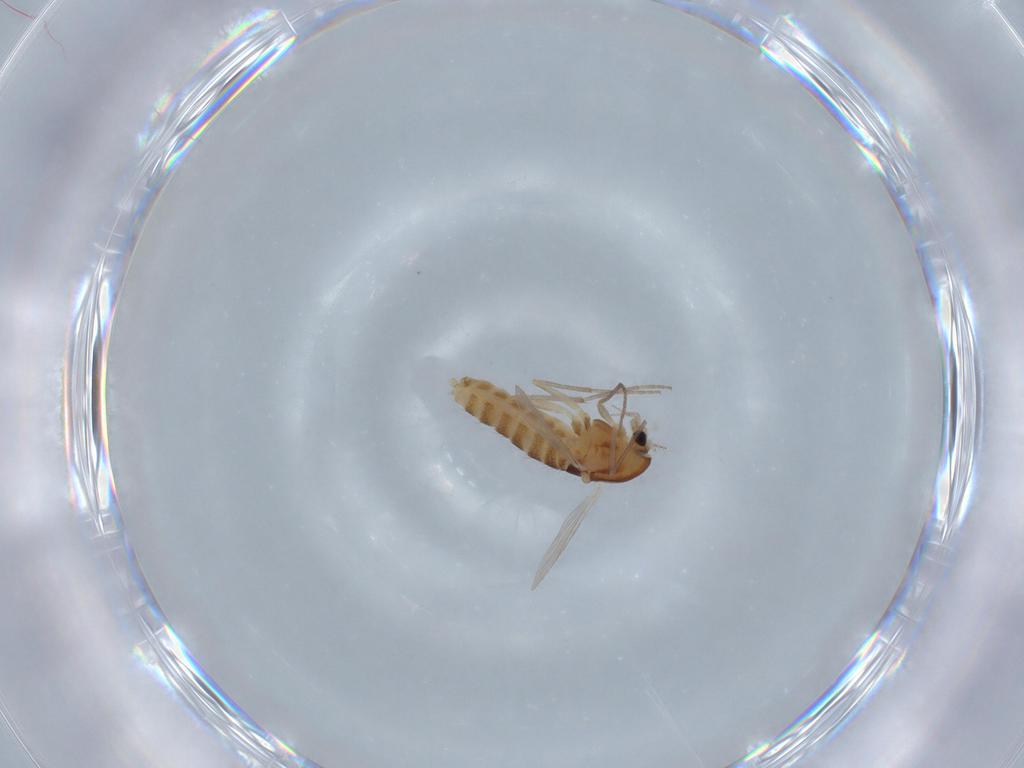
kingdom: Animalia
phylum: Arthropoda
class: Insecta
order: Diptera
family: Chironomidae
